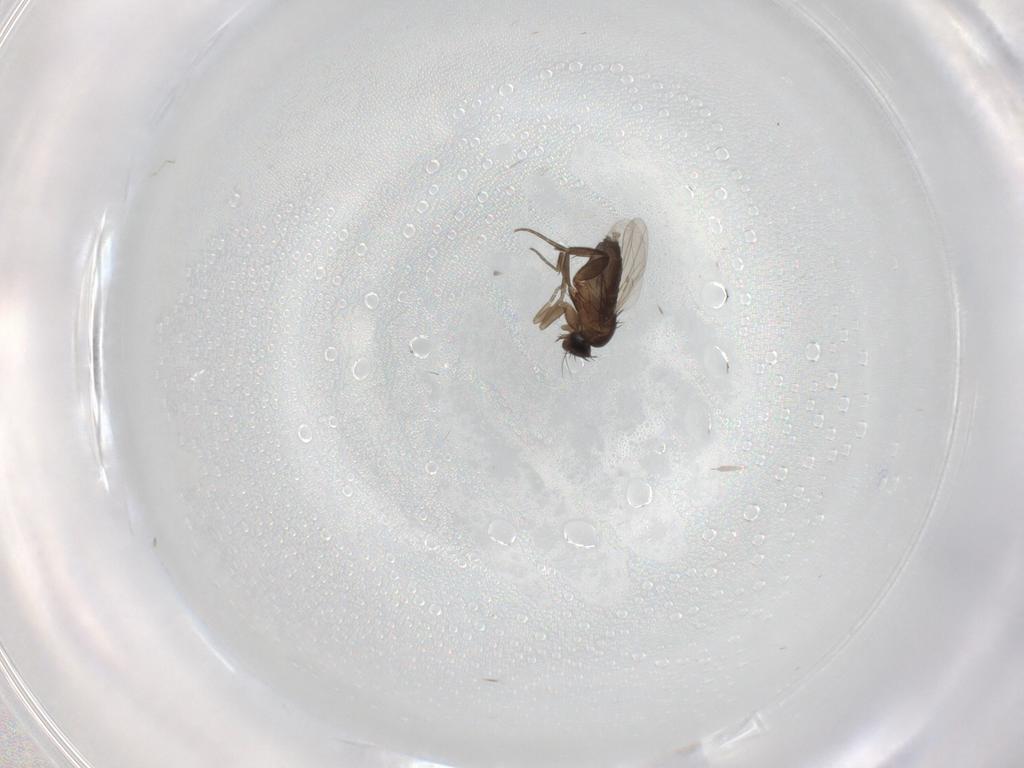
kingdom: Animalia
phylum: Arthropoda
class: Insecta
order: Diptera
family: Phoridae
